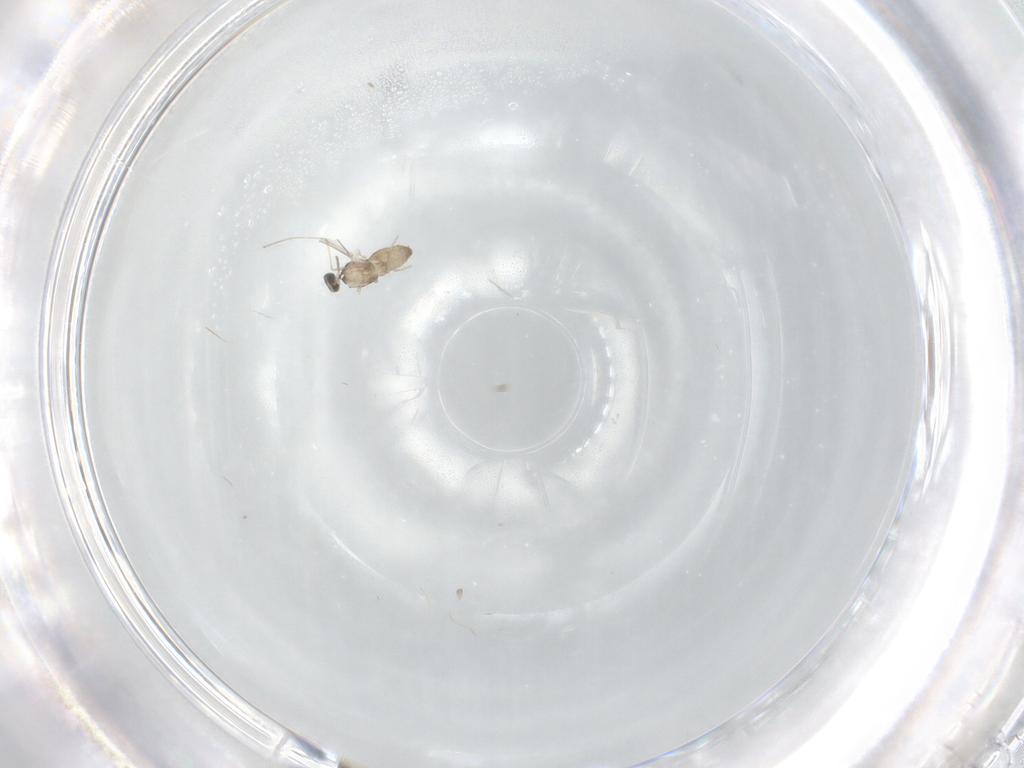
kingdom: Animalia
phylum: Arthropoda
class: Insecta
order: Diptera
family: Cecidomyiidae
